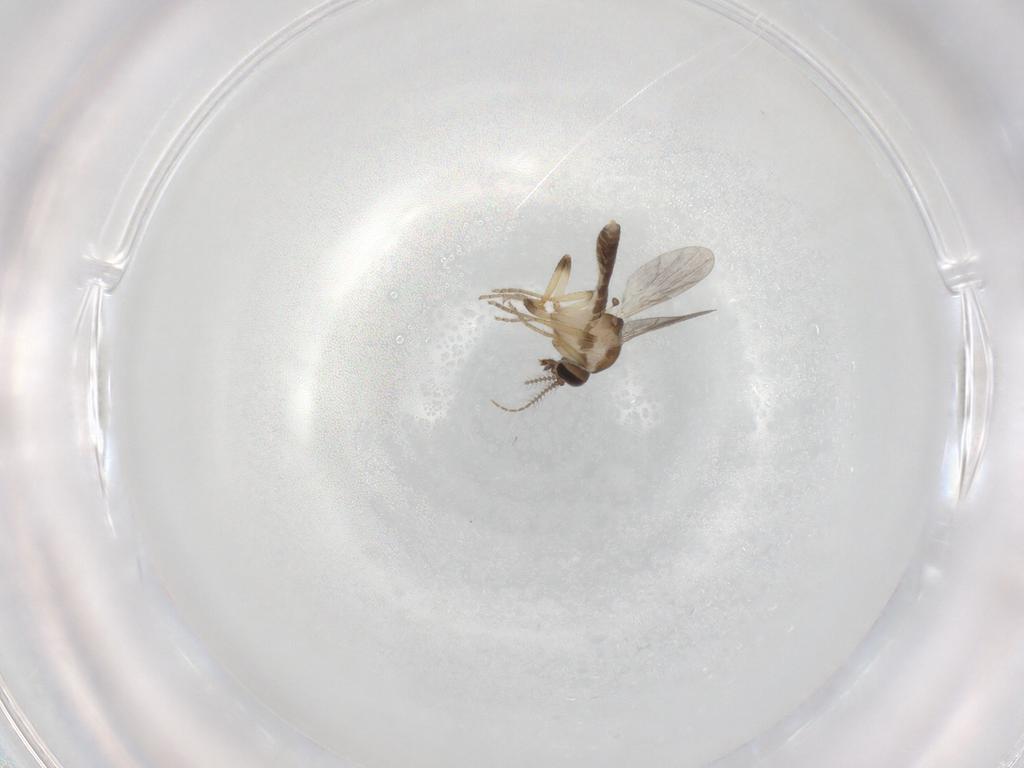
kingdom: Animalia
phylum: Arthropoda
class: Insecta
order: Diptera
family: Ceratopogonidae
